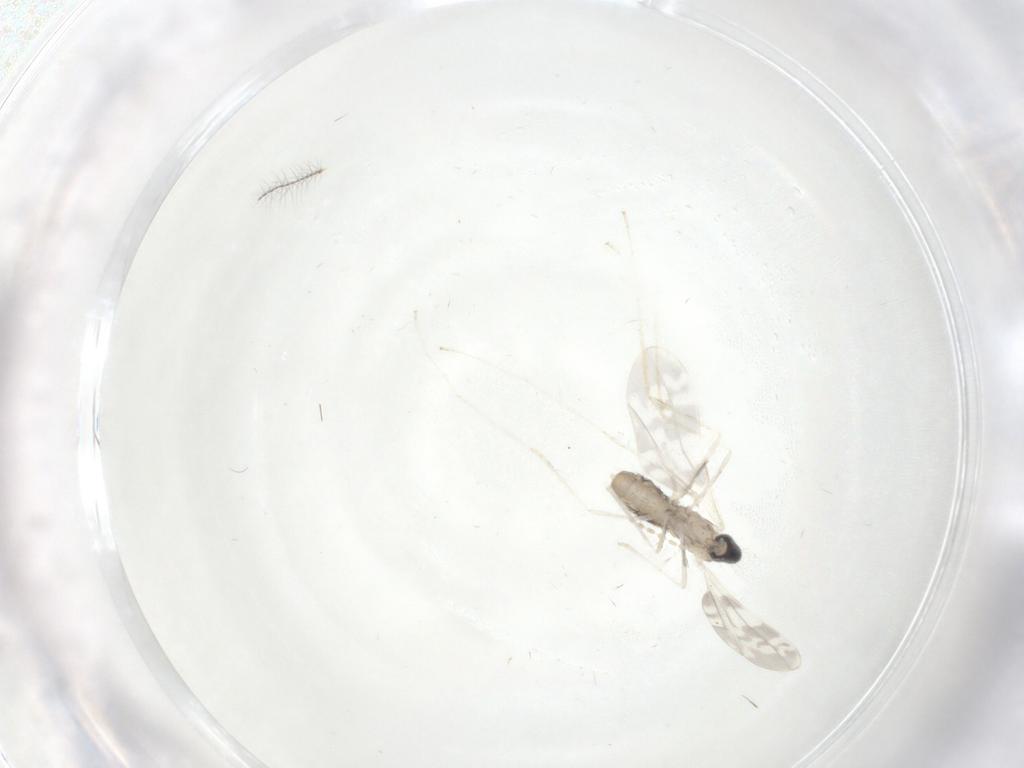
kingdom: Animalia
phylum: Arthropoda
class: Insecta
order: Diptera
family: Cecidomyiidae
